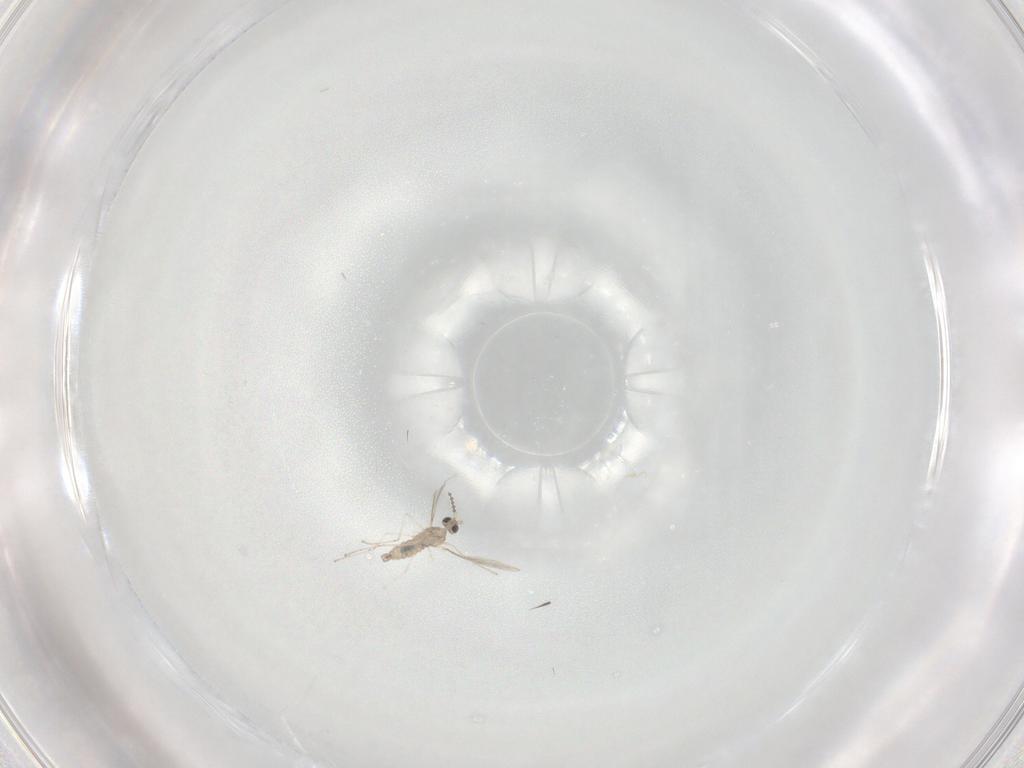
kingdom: Animalia
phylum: Arthropoda
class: Insecta
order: Diptera
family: Cecidomyiidae
